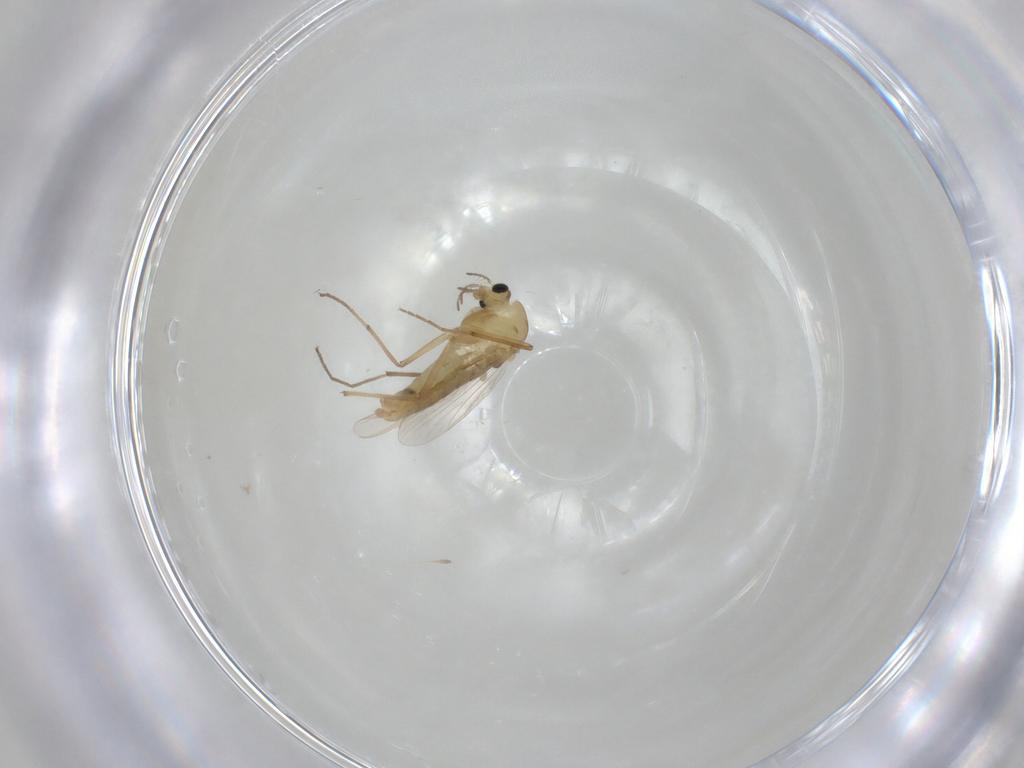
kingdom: Animalia
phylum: Arthropoda
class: Insecta
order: Diptera
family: Chironomidae
